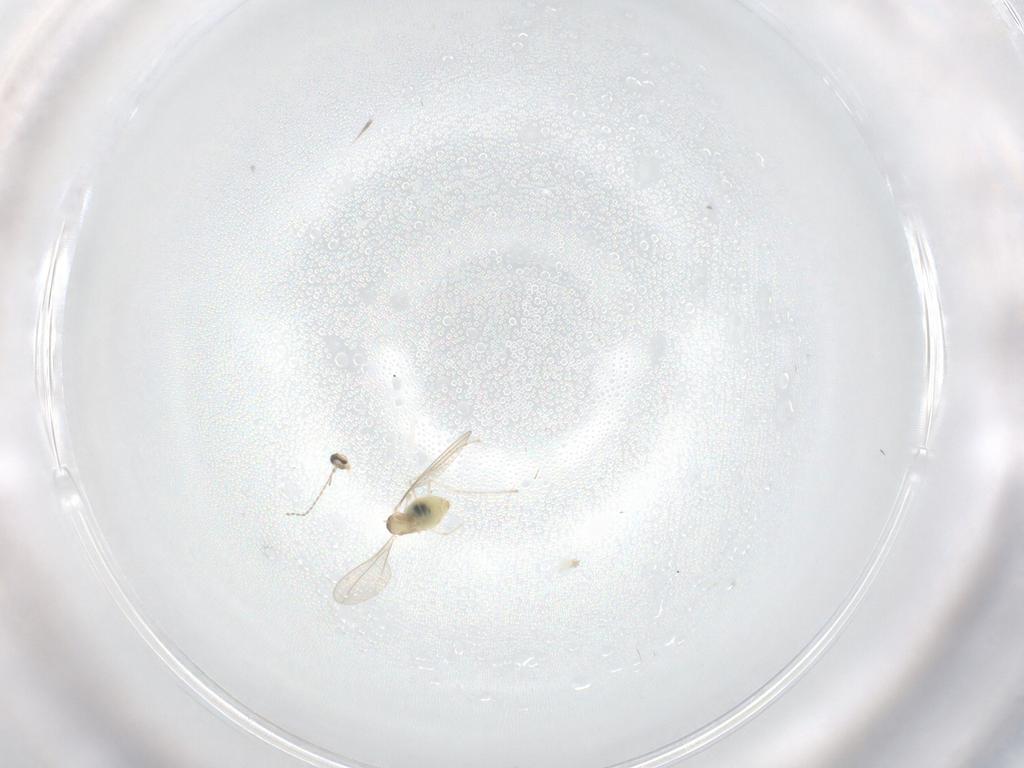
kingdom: Animalia
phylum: Arthropoda
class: Insecta
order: Diptera
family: Cecidomyiidae
